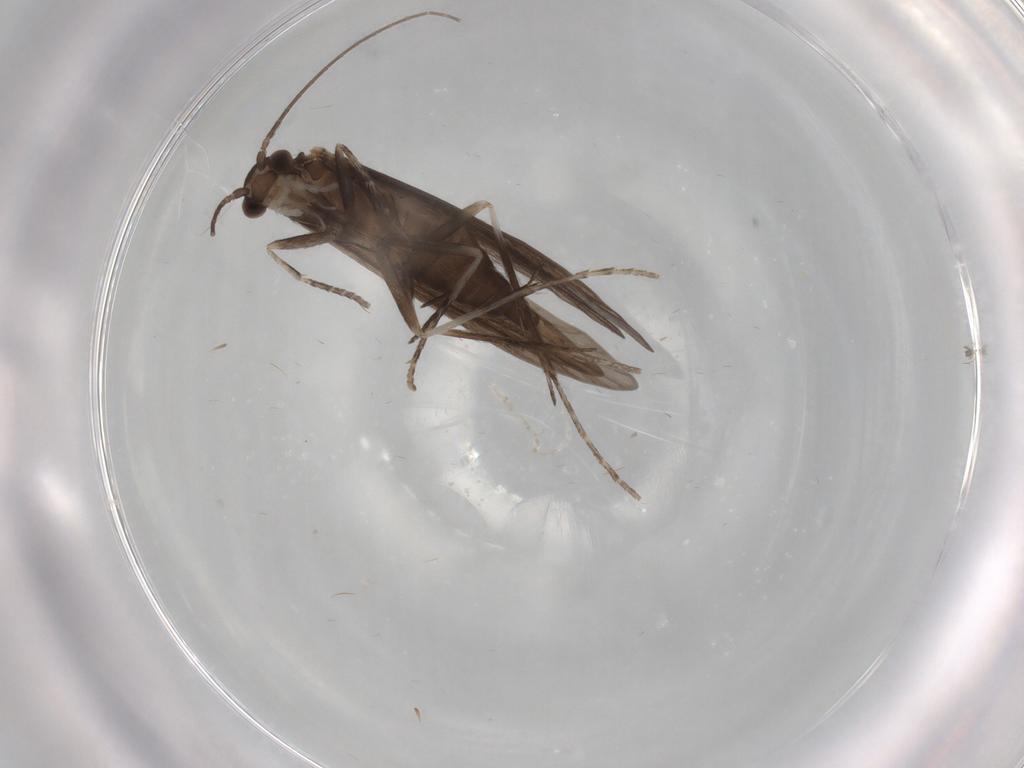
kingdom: Animalia
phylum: Arthropoda
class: Insecta
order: Trichoptera
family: Xiphocentronidae
